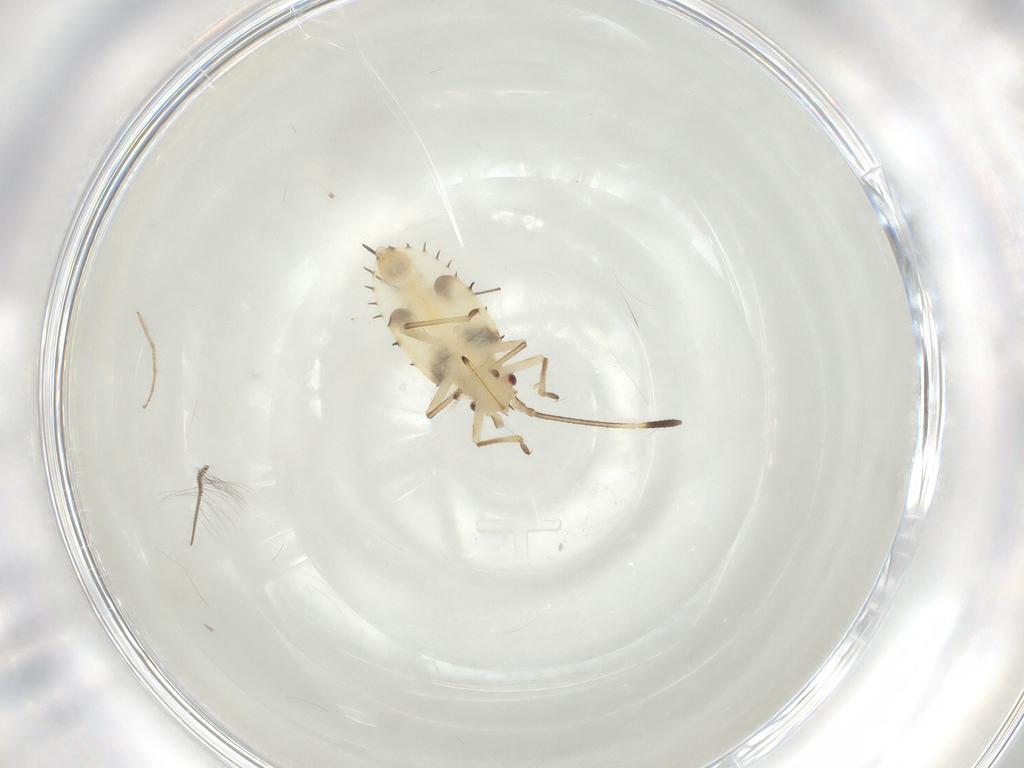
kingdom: Animalia
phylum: Arthropoda
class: Insecta
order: Hemiptera
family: Tingidae
